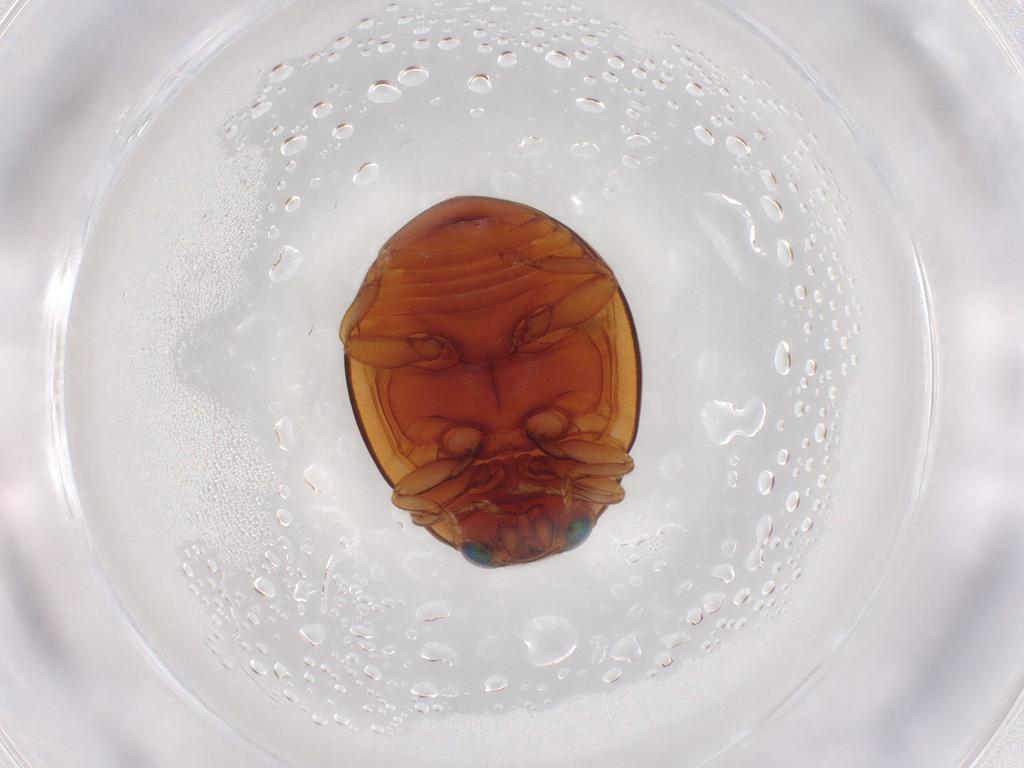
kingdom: Animalia
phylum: Arthropoda
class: Insecta
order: Coleoptera
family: Coccinellidae
